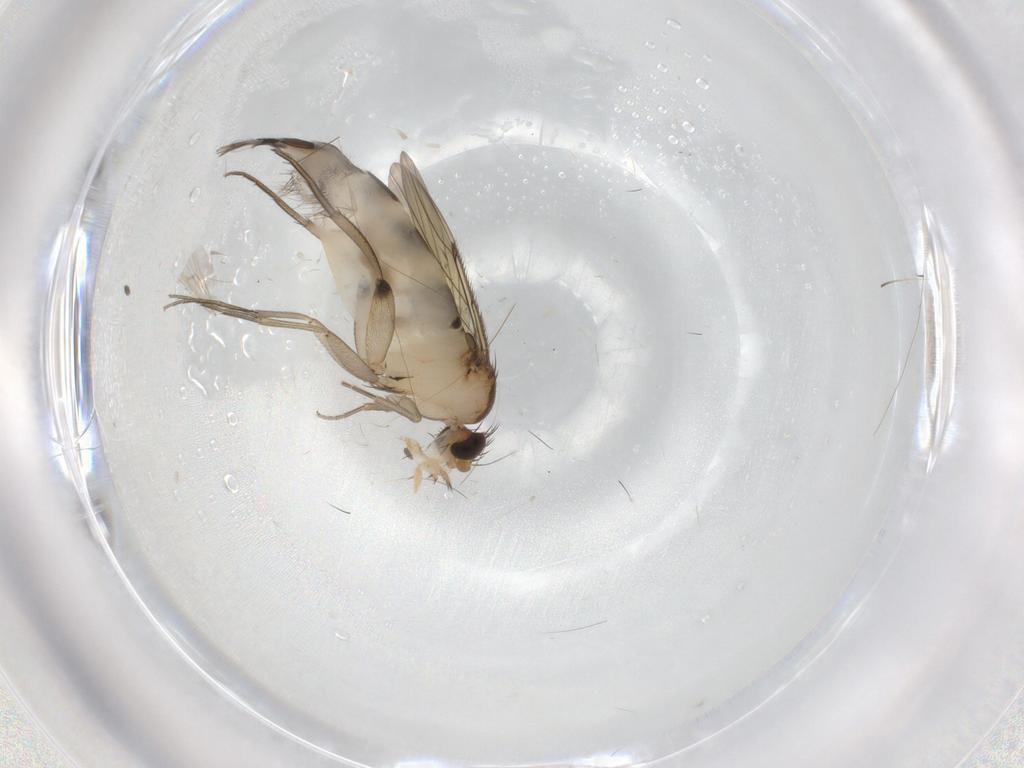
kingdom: Animalia
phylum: Arthropoda
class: Insecta
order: Diptera
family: Phoridae
